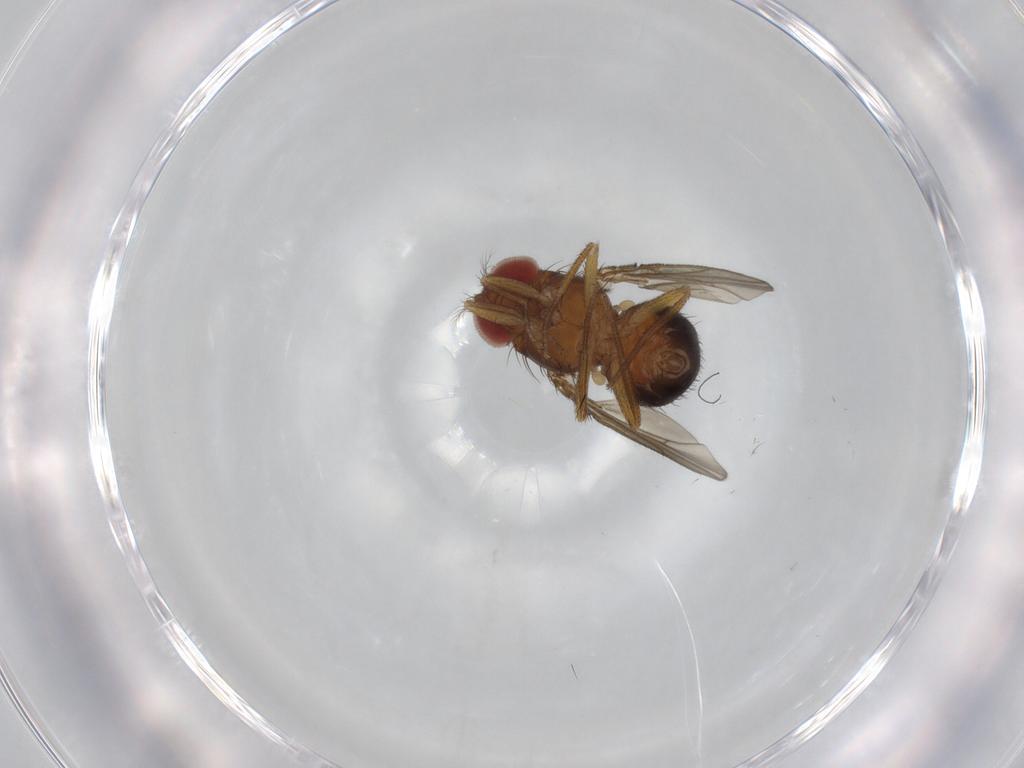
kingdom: Animalia
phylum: Arthropoda
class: Insecta
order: Diptera
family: Drosophilidae
